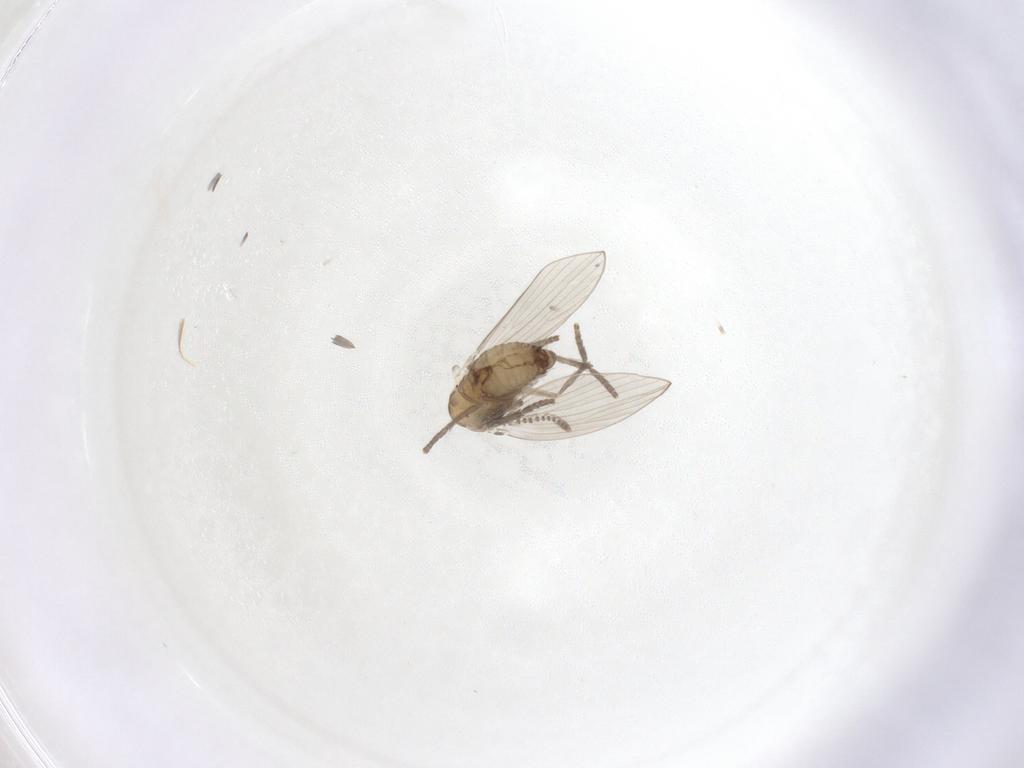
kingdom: Animalia
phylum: Arthropoda
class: Insecta
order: Diptera
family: Psychodidae
